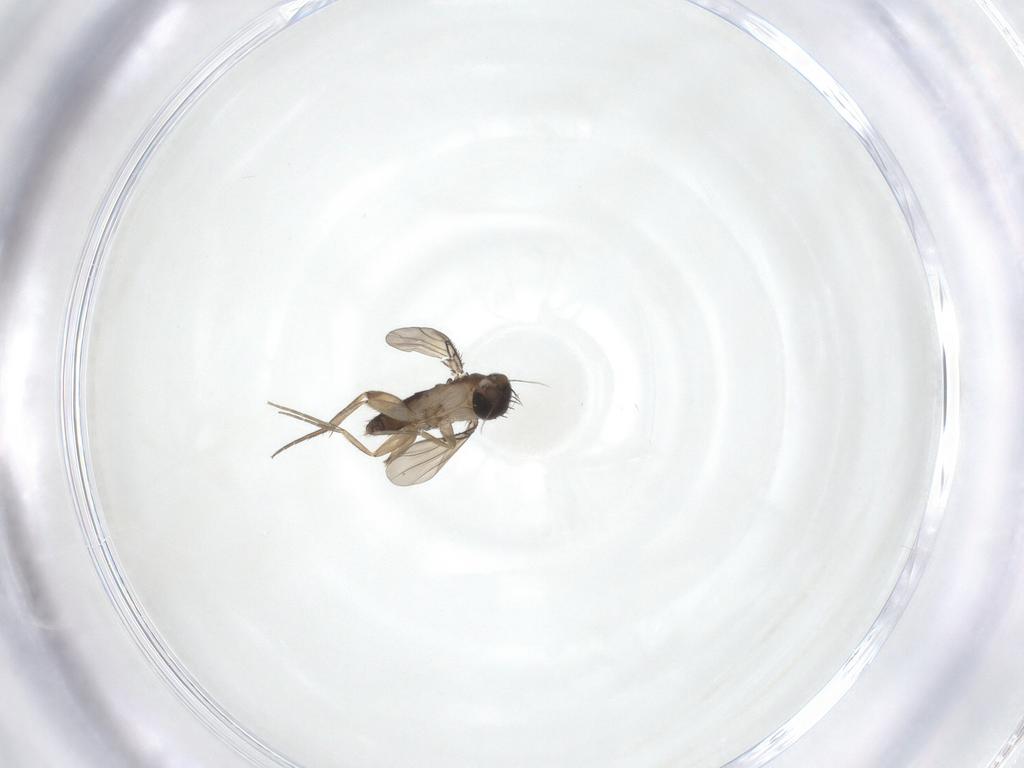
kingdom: Animalia
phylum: Arthropoda
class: Insecta
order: Diptera
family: Phoridae
